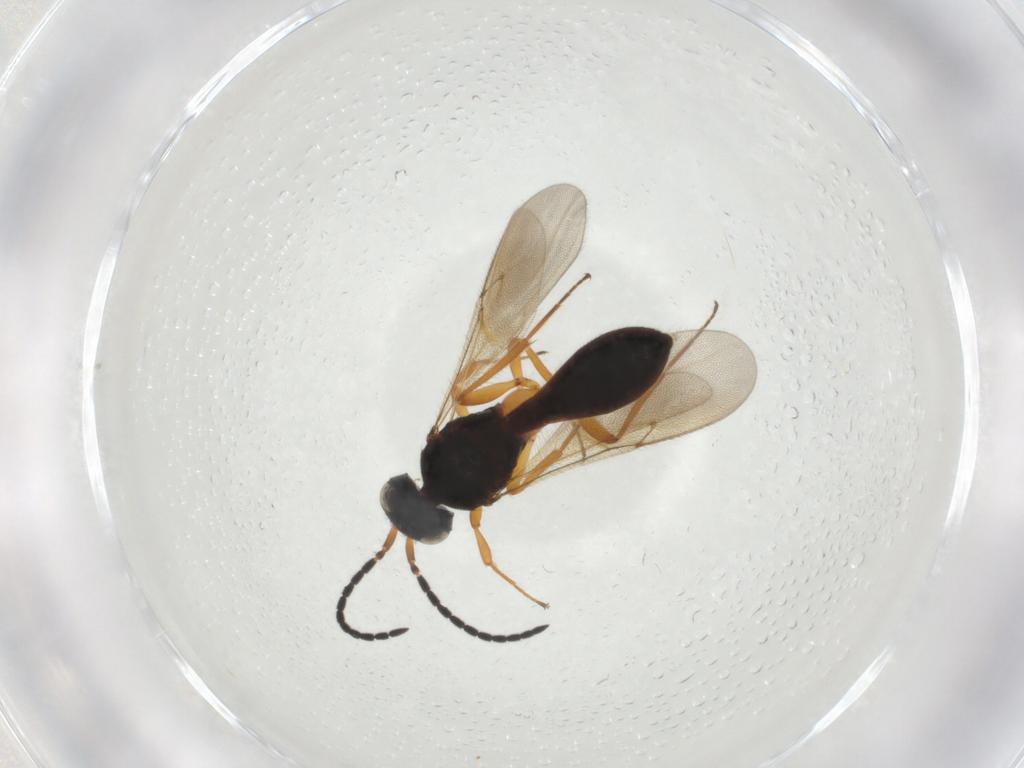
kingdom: Animalia
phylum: Arthropoda
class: Insecta
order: Hymenoptera
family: Scelionidae
